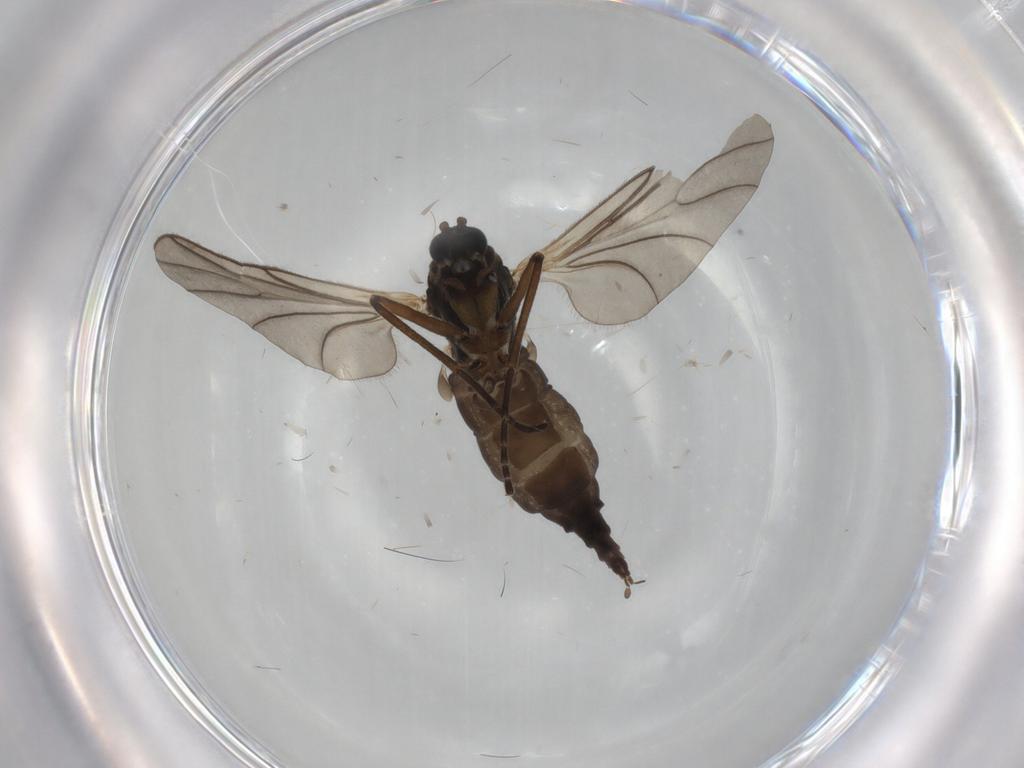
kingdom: Animalia
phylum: Arthropoda
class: Insecta
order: Diptera
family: Sciaridae
